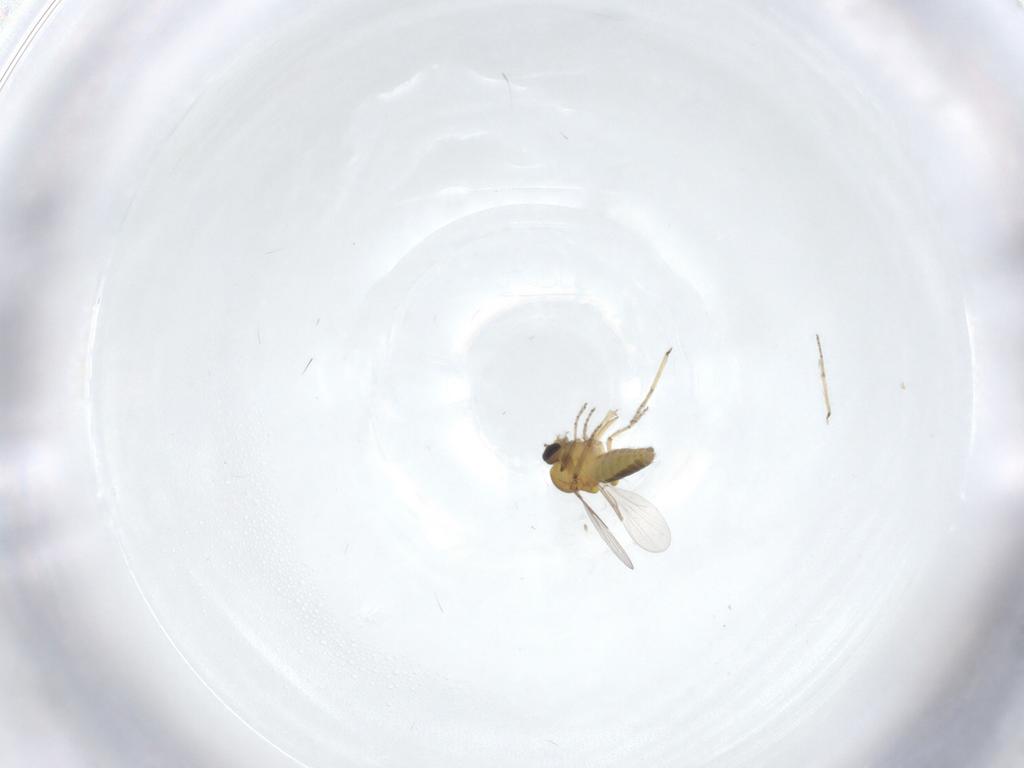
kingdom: Animalia
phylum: Arthropoda
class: Insecta
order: Diptera
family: Ceratopogonidae
